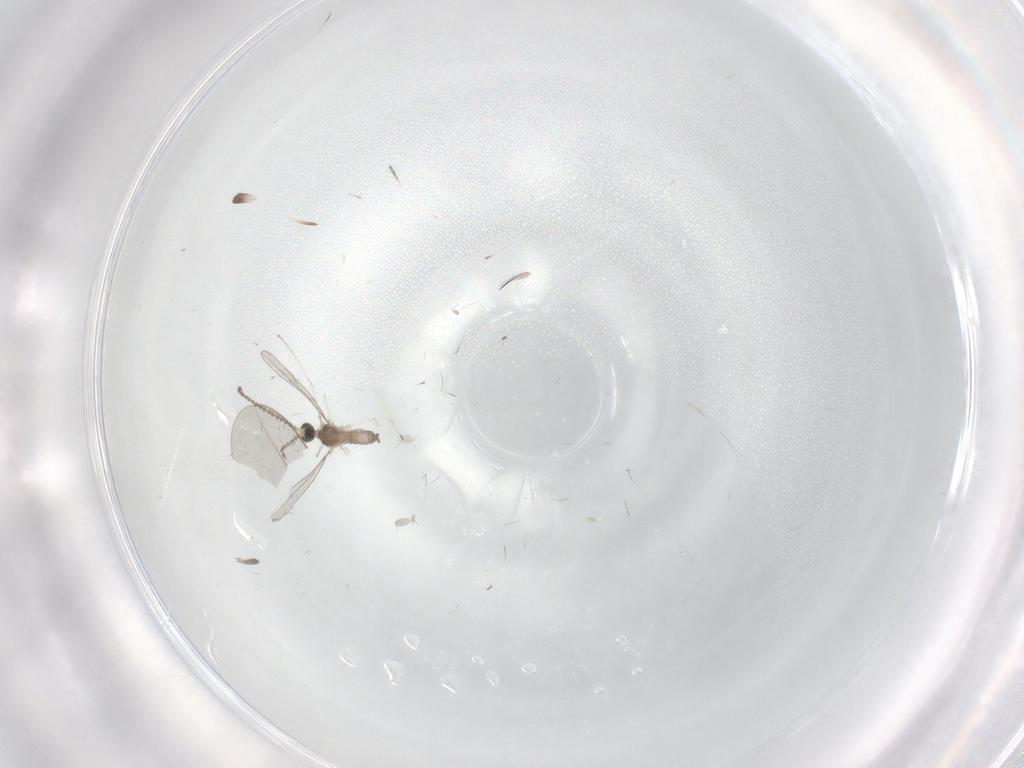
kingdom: Animalia
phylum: Arthropoda
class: Insecta
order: Diptera
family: Cecidomyiidae
